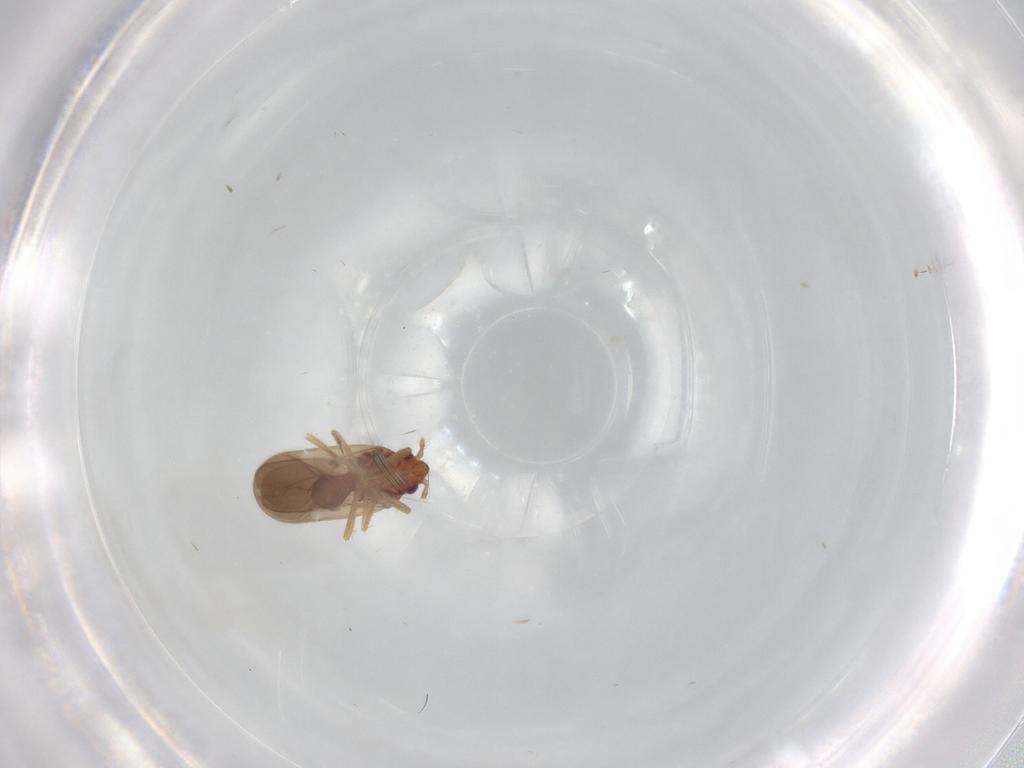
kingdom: Animalia
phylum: Arthropoda
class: Insecta
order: Hemiptera
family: Ceratocombidae
